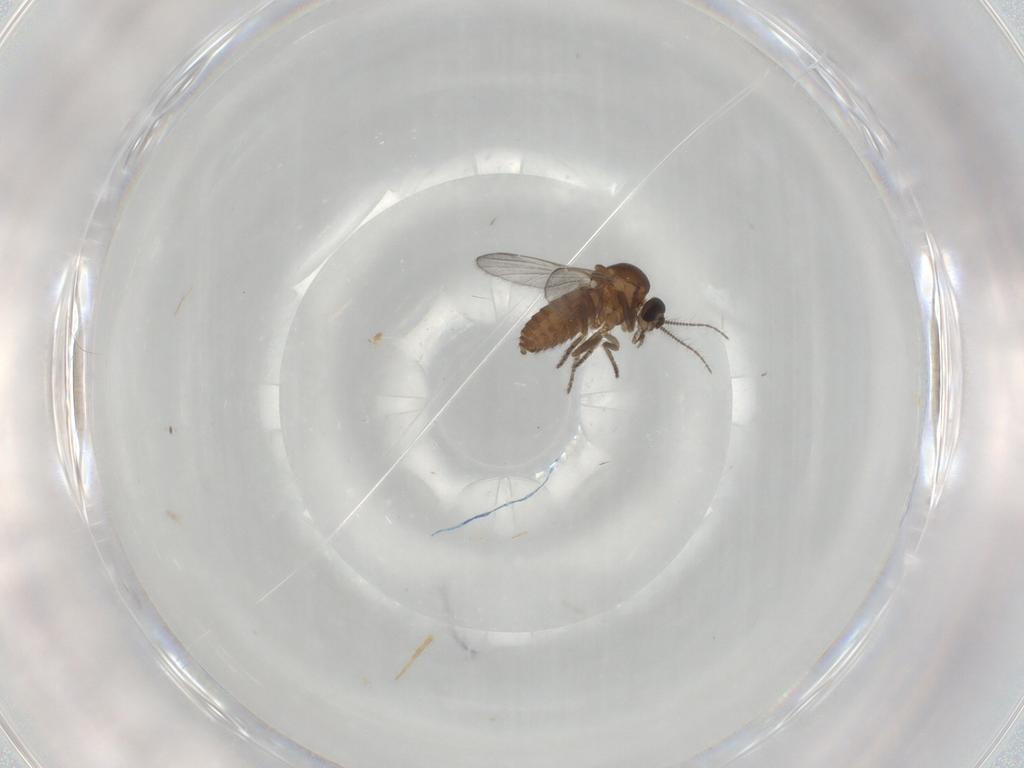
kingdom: Animalia
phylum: Arthropoda
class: Insecta
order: Diptera
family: Ceratopogonidae
